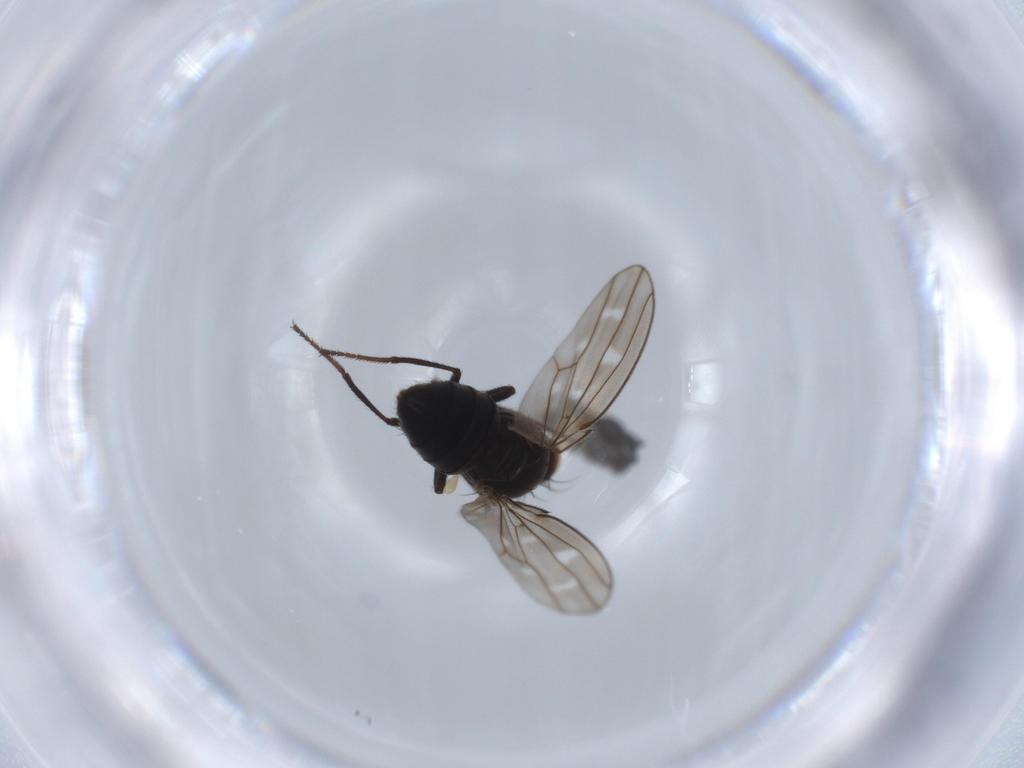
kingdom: Animalia
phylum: Arthropoda
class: Insecta
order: Diptera
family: Ephydridae
